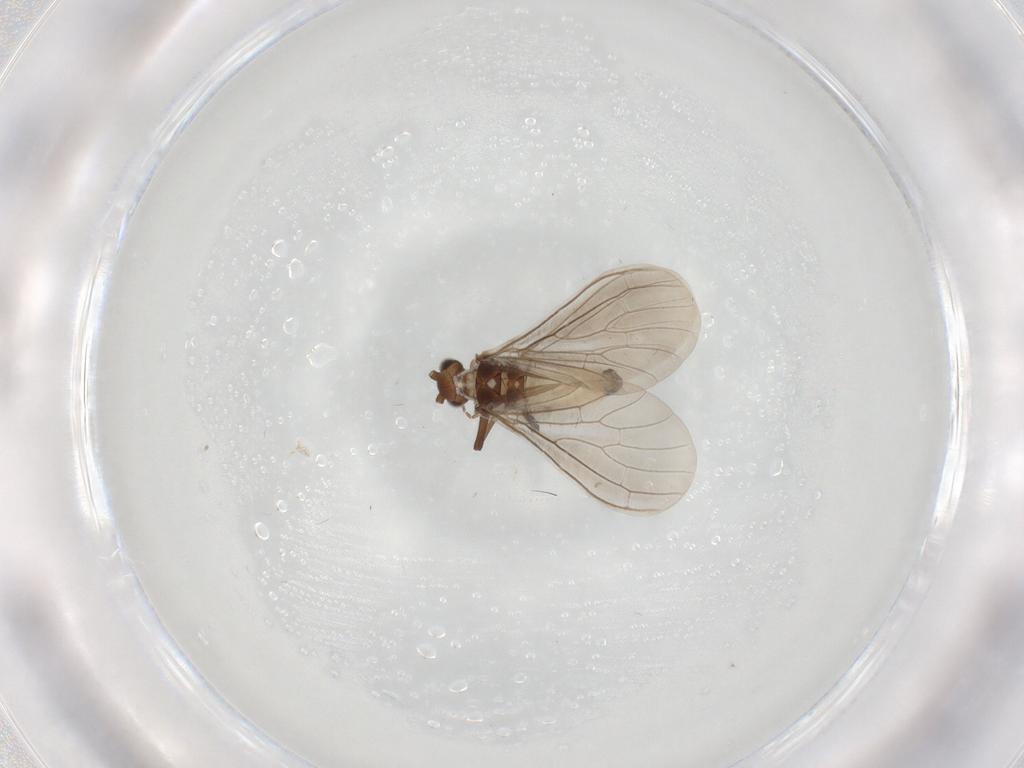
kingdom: Animalia
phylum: Arthropoda
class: Insecta
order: Neuroptera
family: Coniopterygidae
